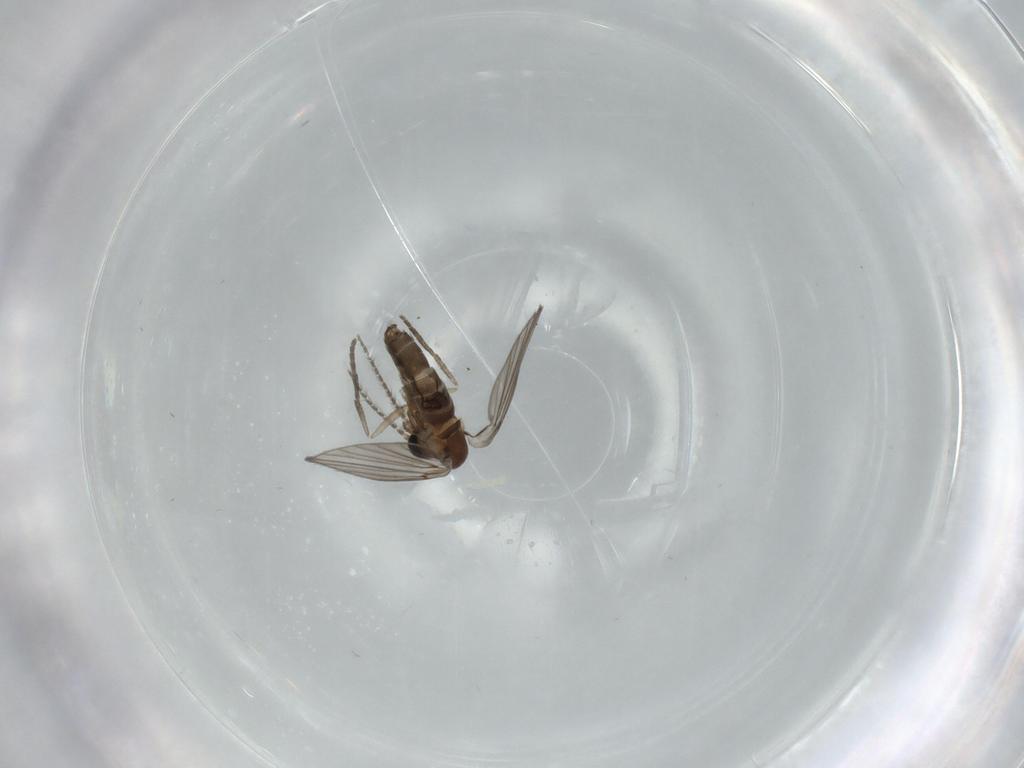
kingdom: Animalia
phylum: Arthropoda
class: Insecta
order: Diptera
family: Psychodidae
